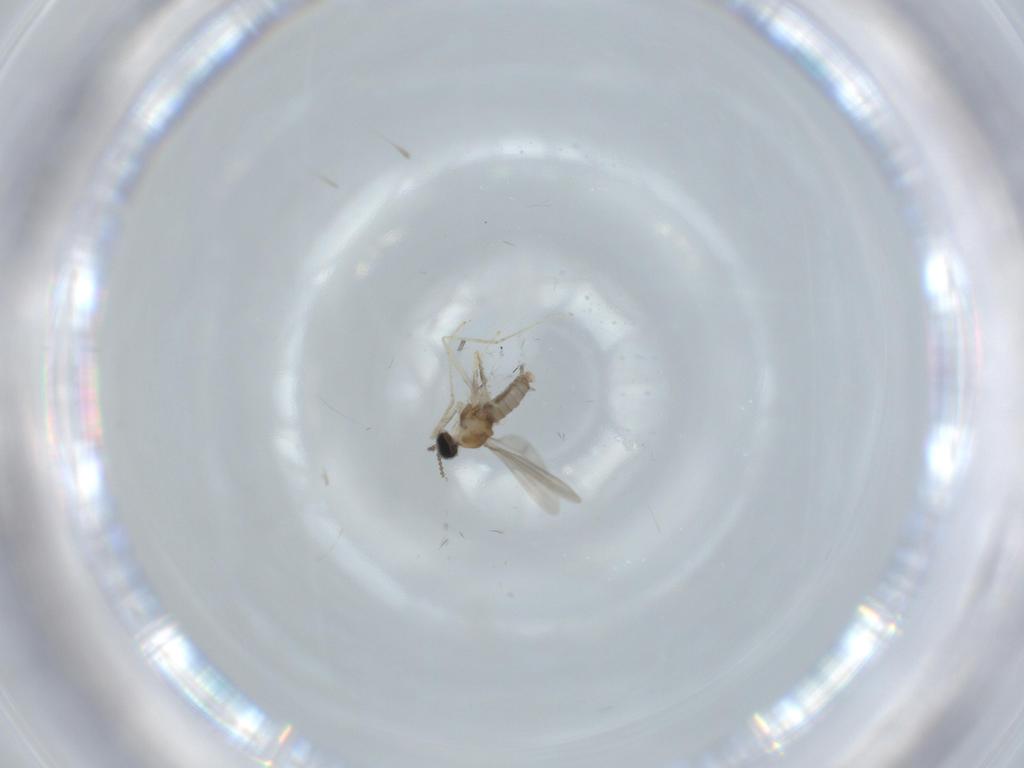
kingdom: Animalia
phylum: Arthropoda
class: Insecta
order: Diptera
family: Cecidomyiidae
